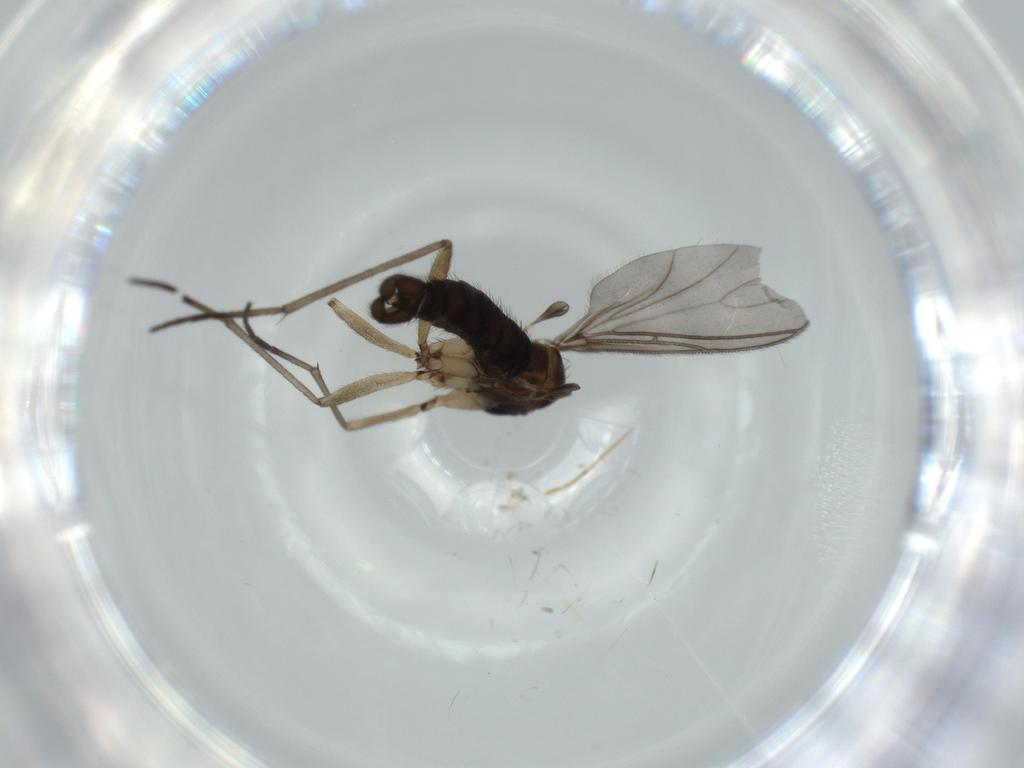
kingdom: Animalia
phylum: Arthropoda
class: Insecta
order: Diptera
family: Sciaridae
